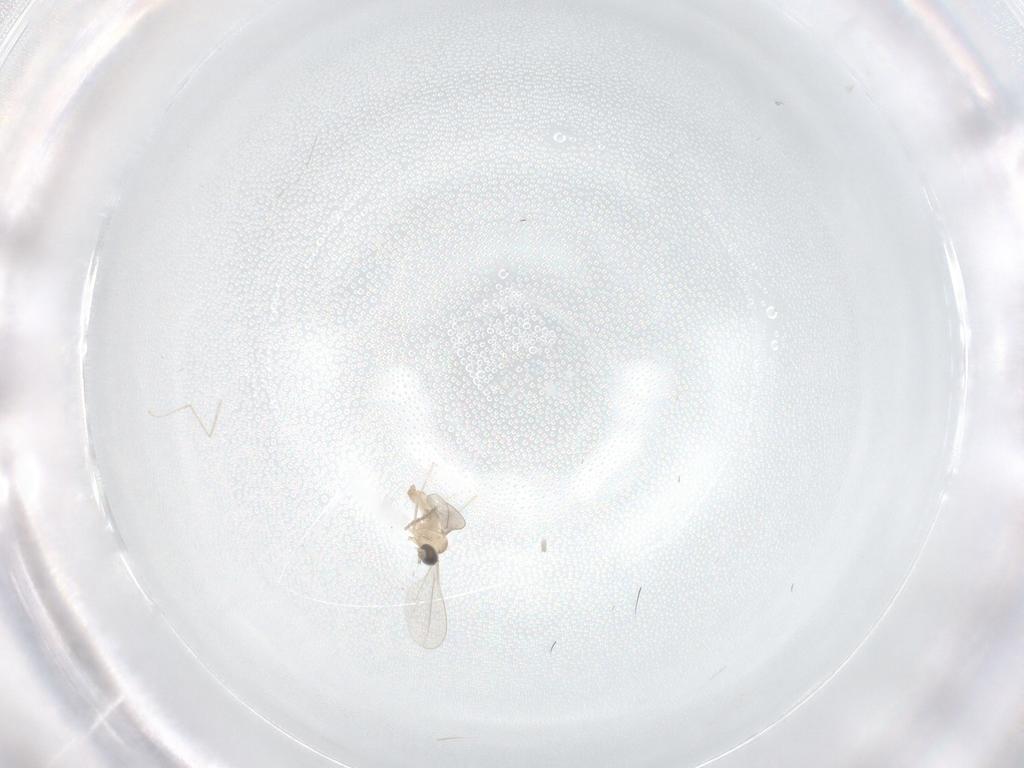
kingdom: Animalia
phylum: Arthropoda
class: Insecta
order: Diptera
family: Cecidomyiidae
